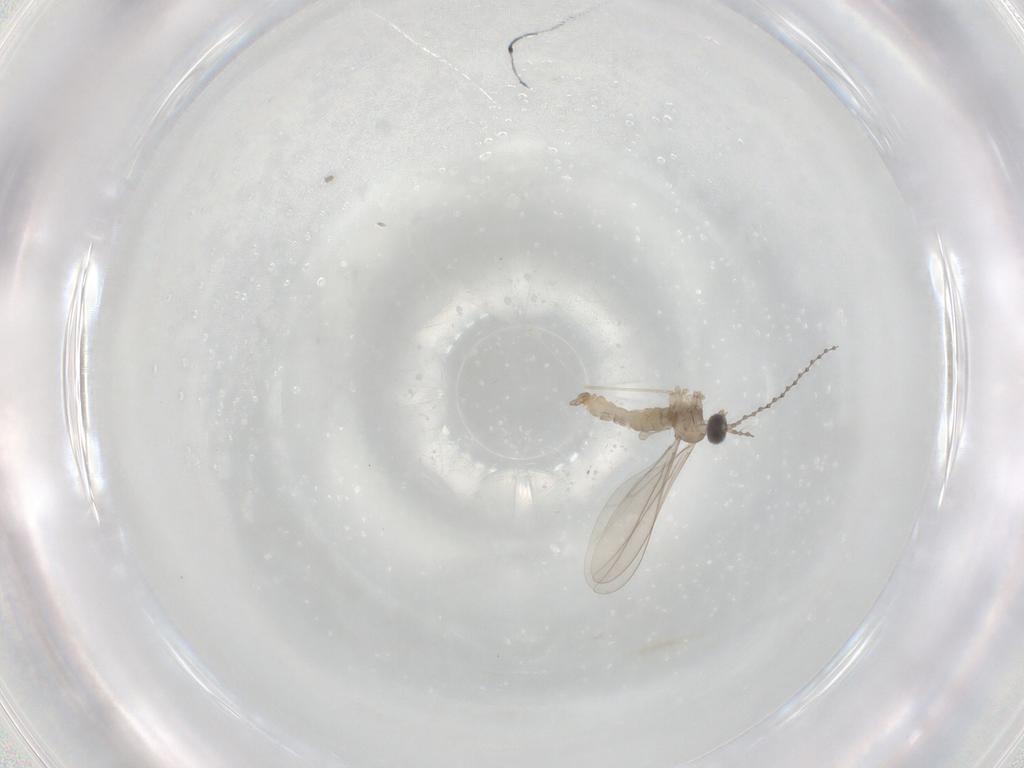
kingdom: Animalia
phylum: Arthropoda
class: Insecta
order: Diptera
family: Cecidomyiidae
